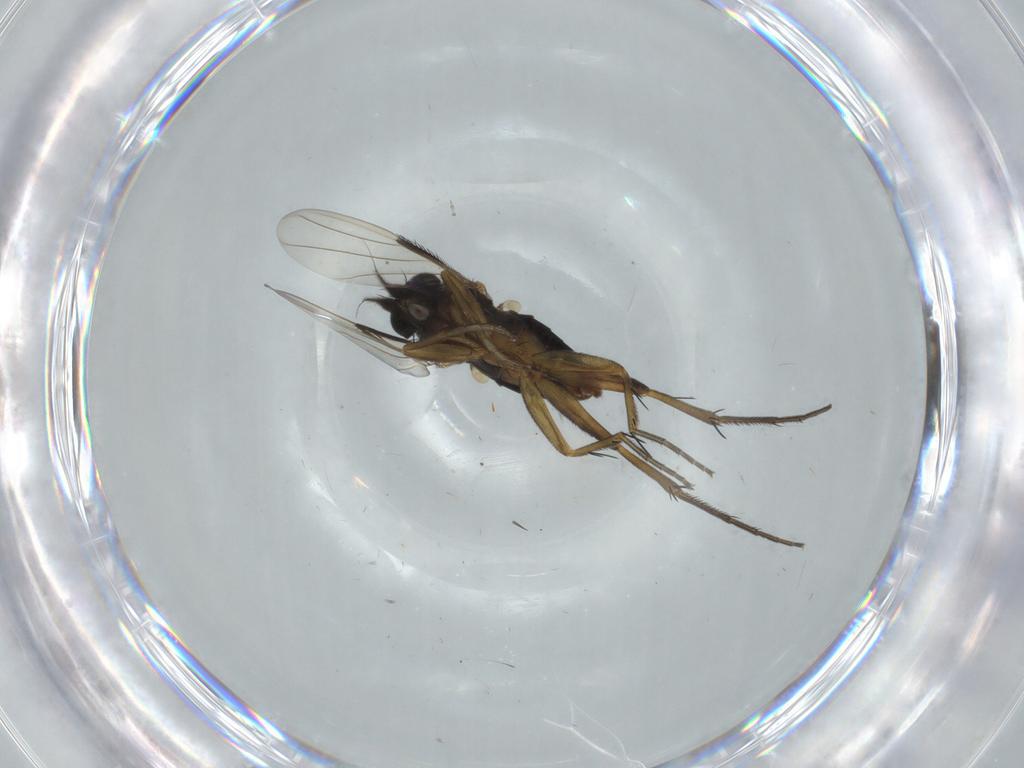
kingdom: Animalia
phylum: Arthropoda
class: Insecta
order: Diptera
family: Phoridae
